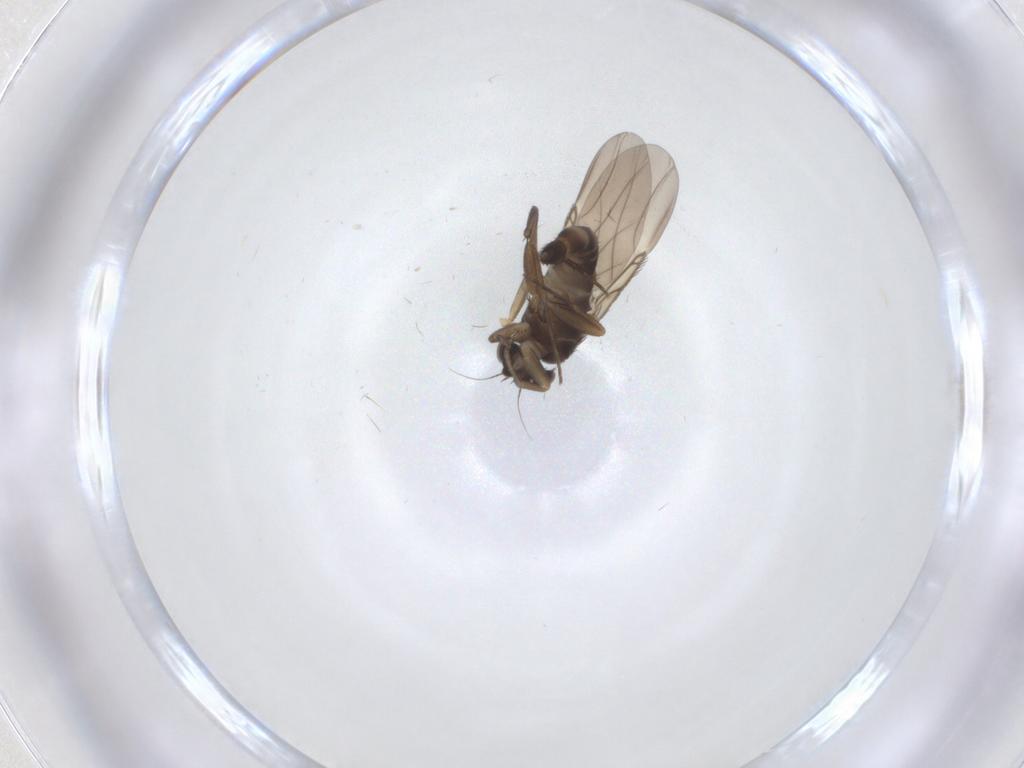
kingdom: Animalia
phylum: Arthropoda
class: Insecta
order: Diptera
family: Phoridae
